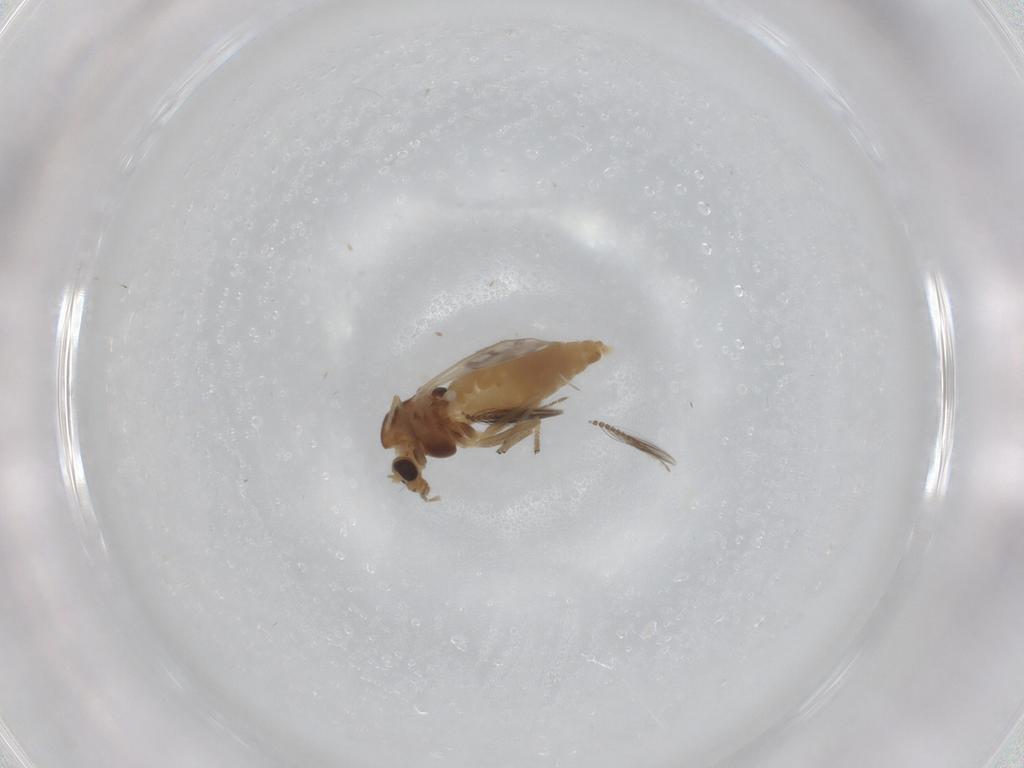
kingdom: Animalia
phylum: Arthropoda
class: Insecta
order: Diptera
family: Chironomidae
